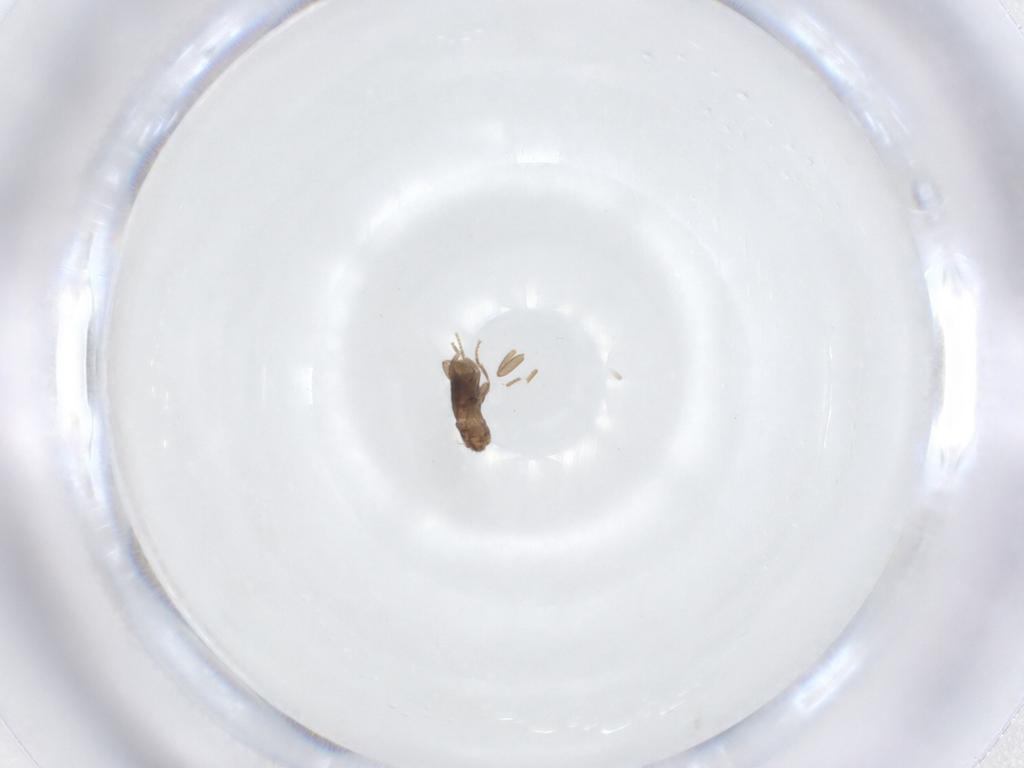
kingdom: Animalia
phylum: Arthropoda
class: Insecta
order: Diptera
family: Phoridae
